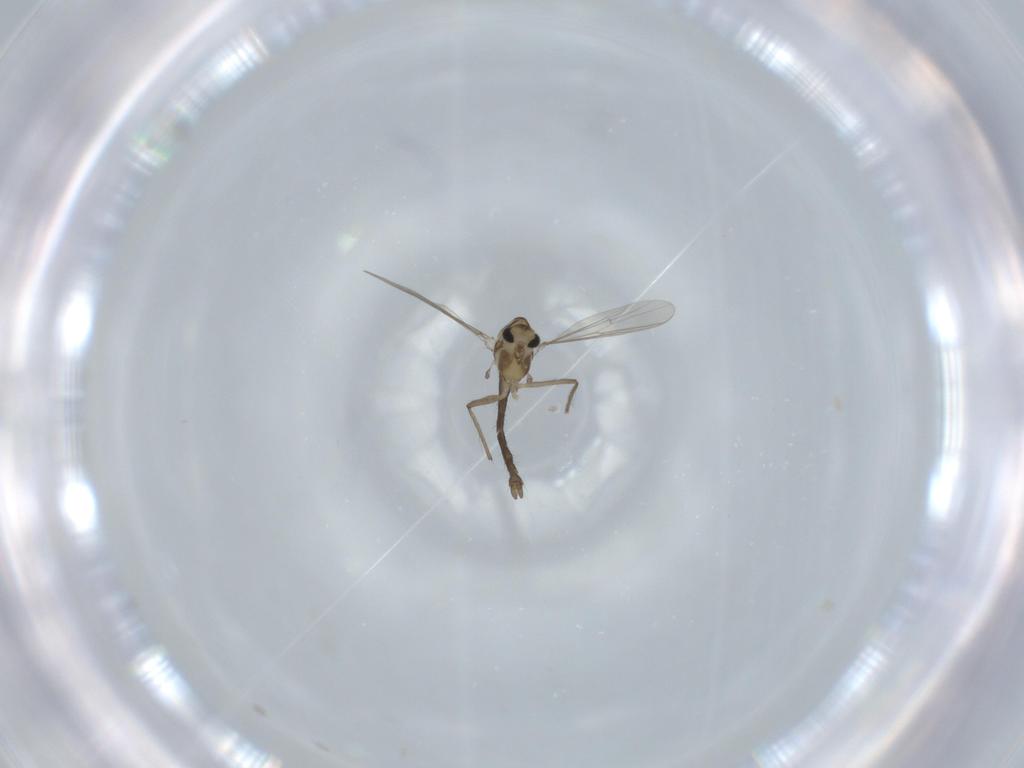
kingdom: Animalia
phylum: Arthropoda
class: Insecta
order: Diptera
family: Chironomidae
